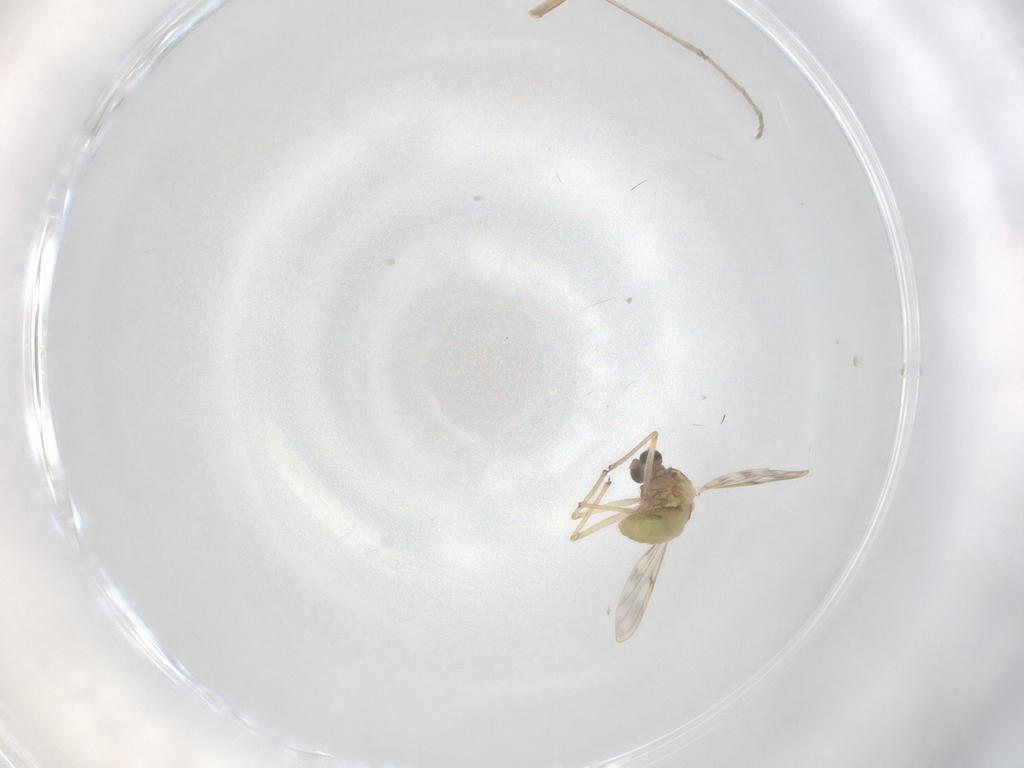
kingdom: Animalia
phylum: Arthropoda
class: Insecta
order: Diptera
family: Chironomidae
